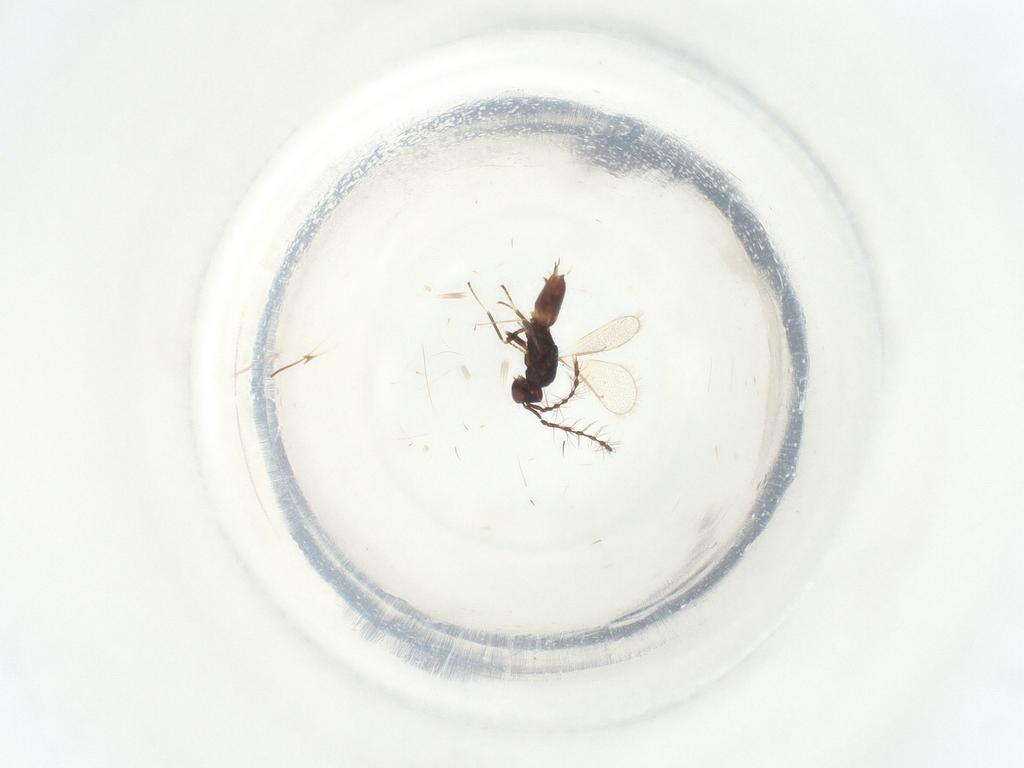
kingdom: Animalia
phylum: Arthropoda
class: Insecta
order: Hymenoptera
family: Eulophidae
